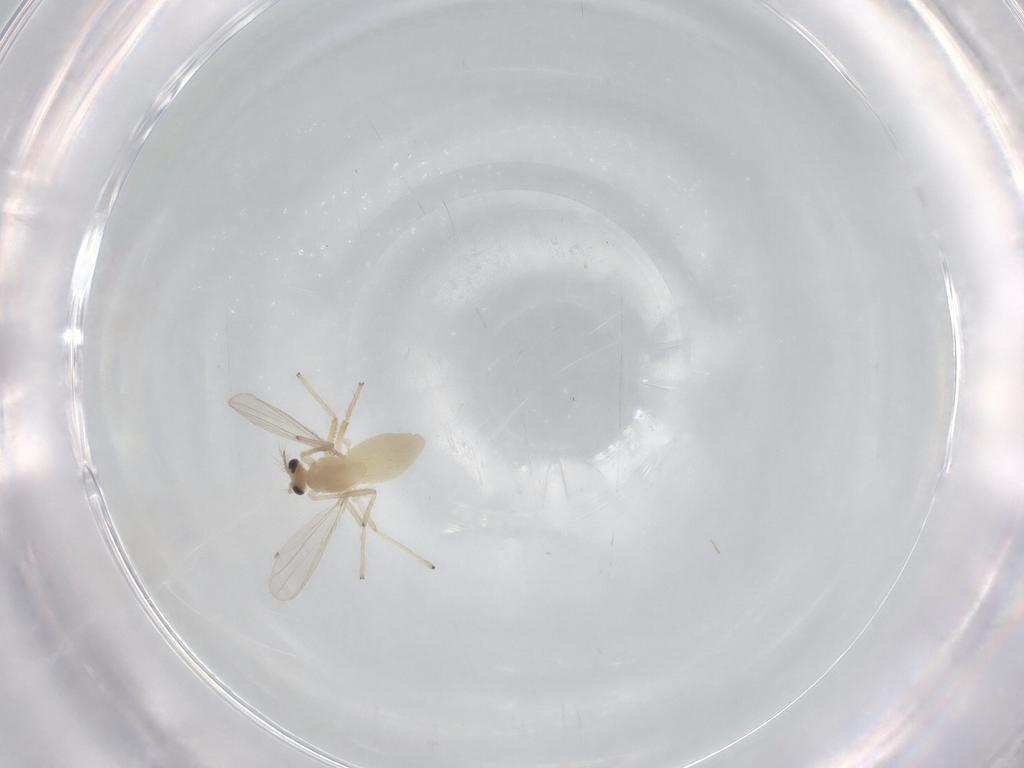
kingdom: Animalia
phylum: Arthropoda
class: Insecta
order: Diptera
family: Chironomidae
